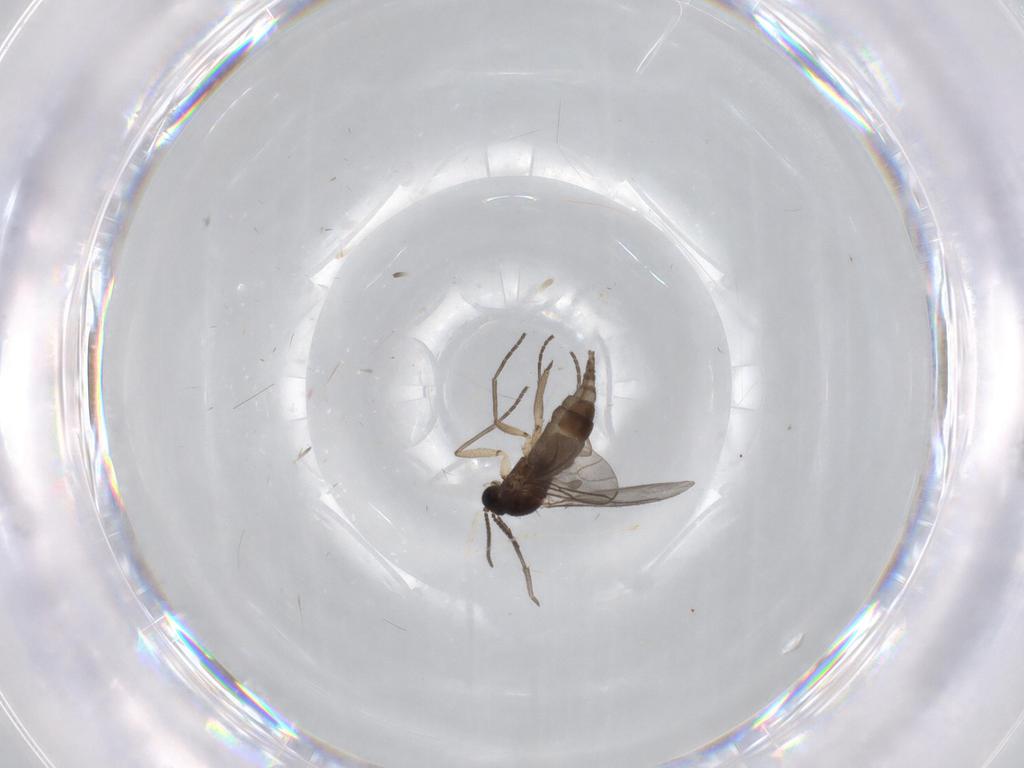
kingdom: Animalia
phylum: Arthropoda
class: Insecta
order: Diptera
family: Sciaridae
